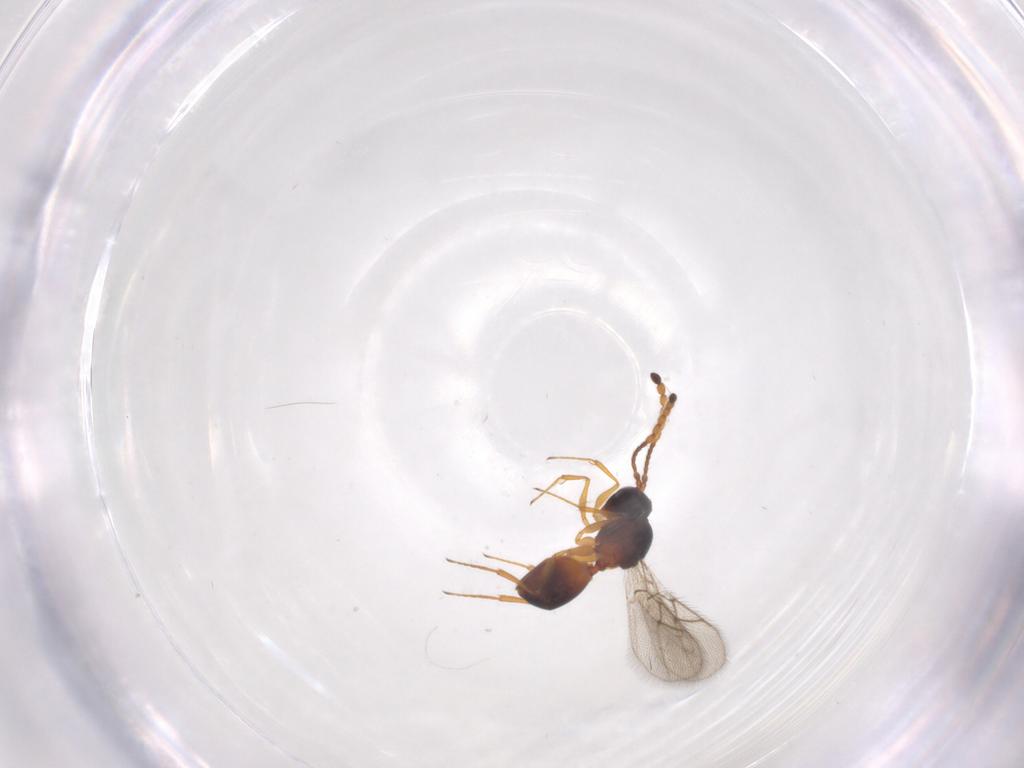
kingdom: Animalia
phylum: Arthropoda
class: Insecta
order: Hymenoptera
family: Figitidae
